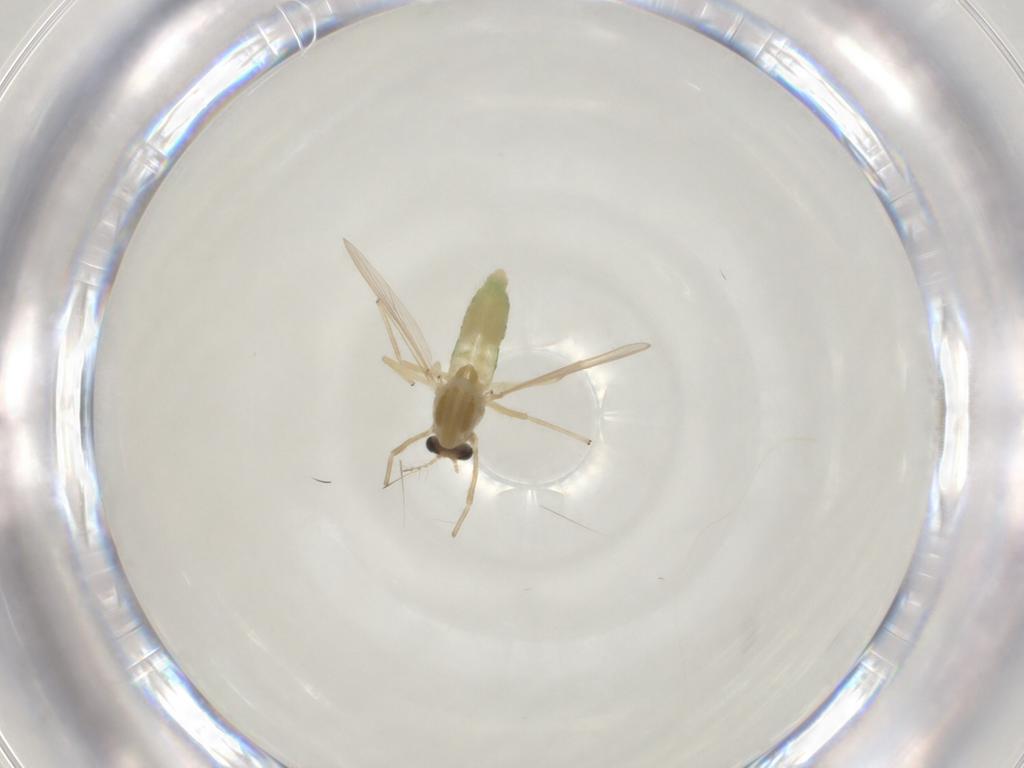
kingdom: Animalia
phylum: Arthropoda
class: Insecta
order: Diptera
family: Chironomidae
